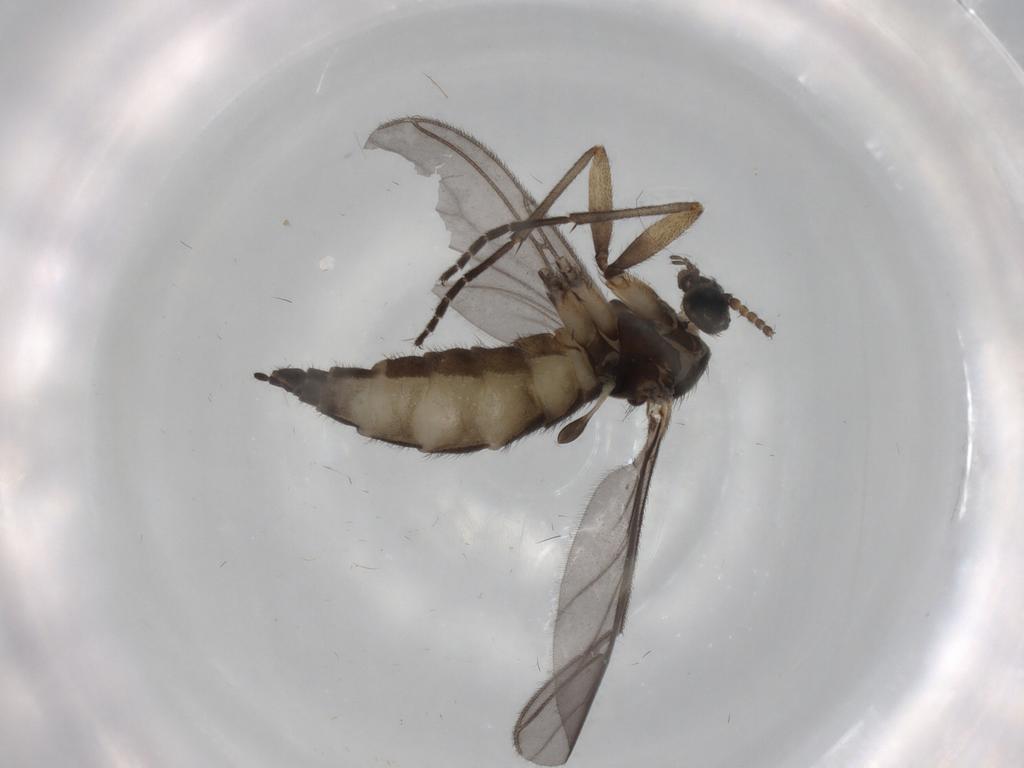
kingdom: Animalia
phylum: Arthropoda
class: Insecta
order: Diptera
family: Sciaridae
